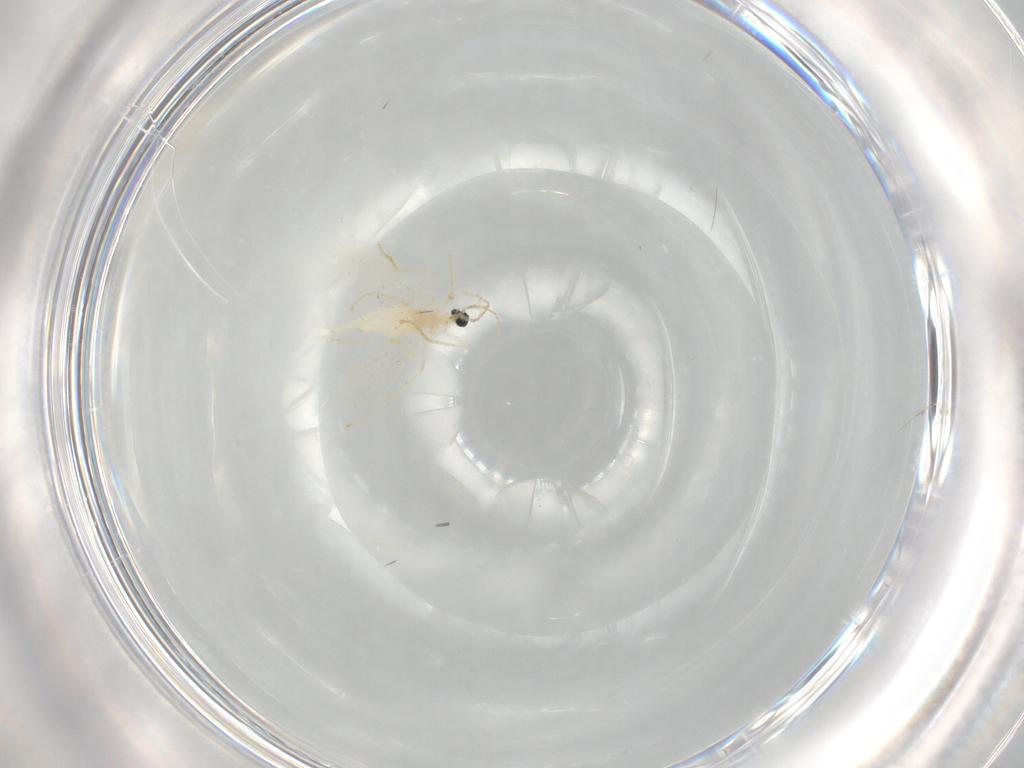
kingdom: Animalia
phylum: Arthropoda
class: Insecta
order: Diptera
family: Cecidomyiidae
